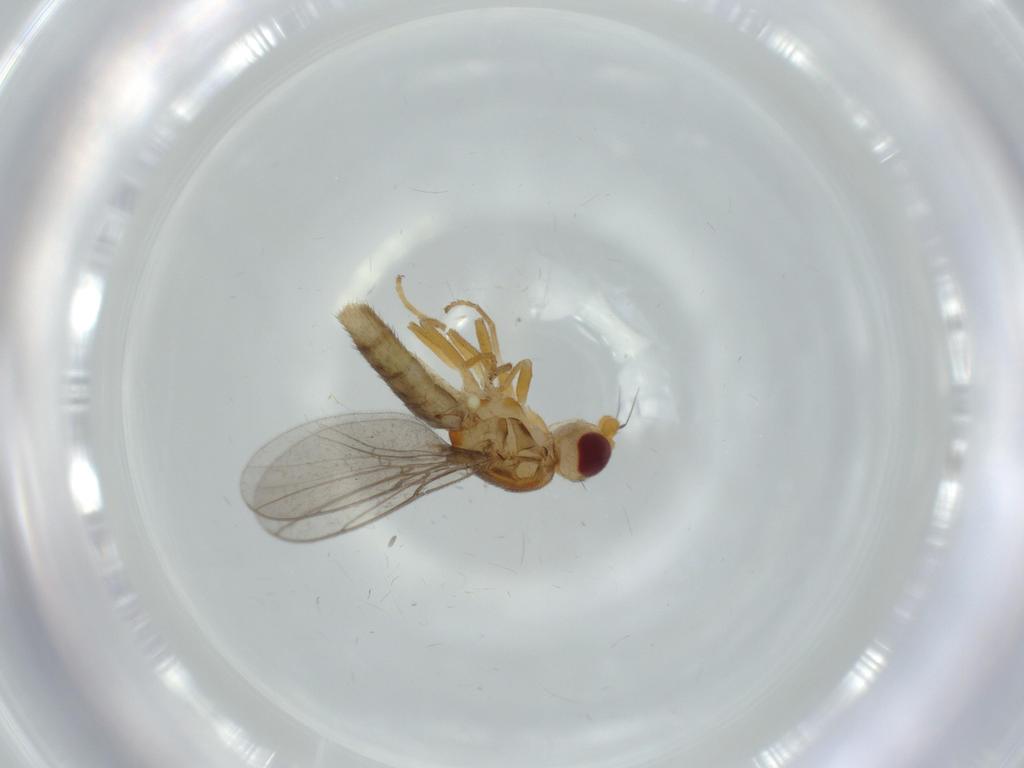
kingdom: Animalia
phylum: Arthropoda
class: Insecta
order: Diptera
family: Chloropidae
